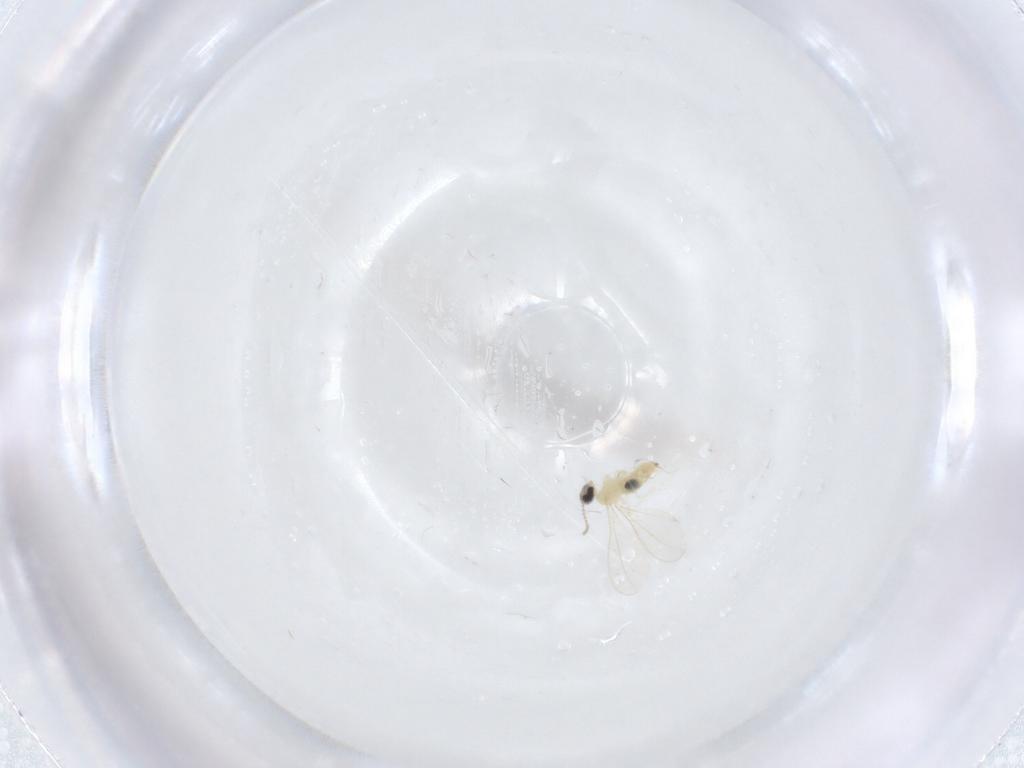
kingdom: Animalia
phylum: Arthropoda
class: Insecta
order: Diptera
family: Cecidomyiidae
